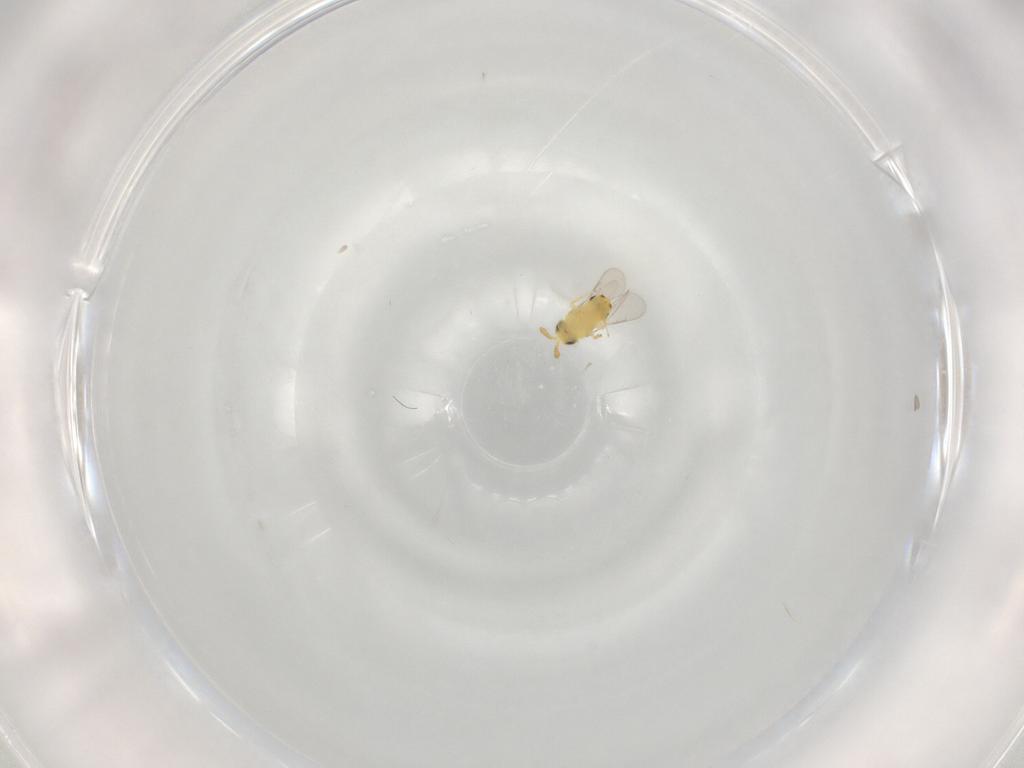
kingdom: Animalia
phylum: Arthropoda
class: Insecta
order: Hymenoptera
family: Aphelinidae
